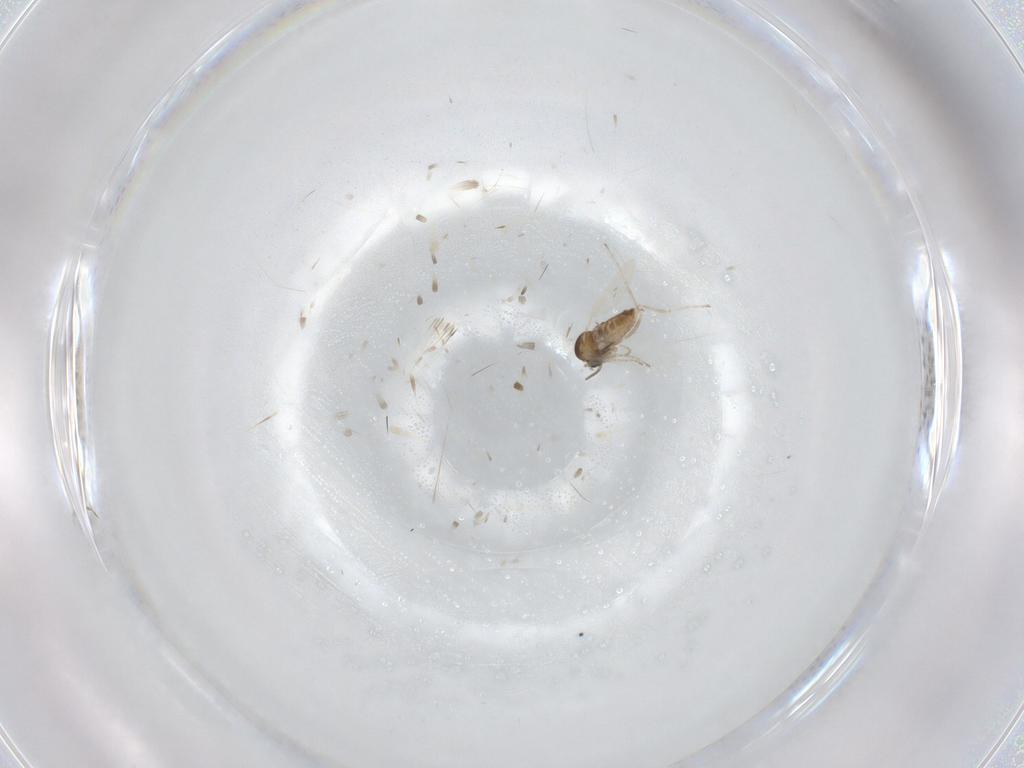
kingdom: Animalia
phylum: Arthropoda
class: Insecta
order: Diptera
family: Cecidomyiidae
